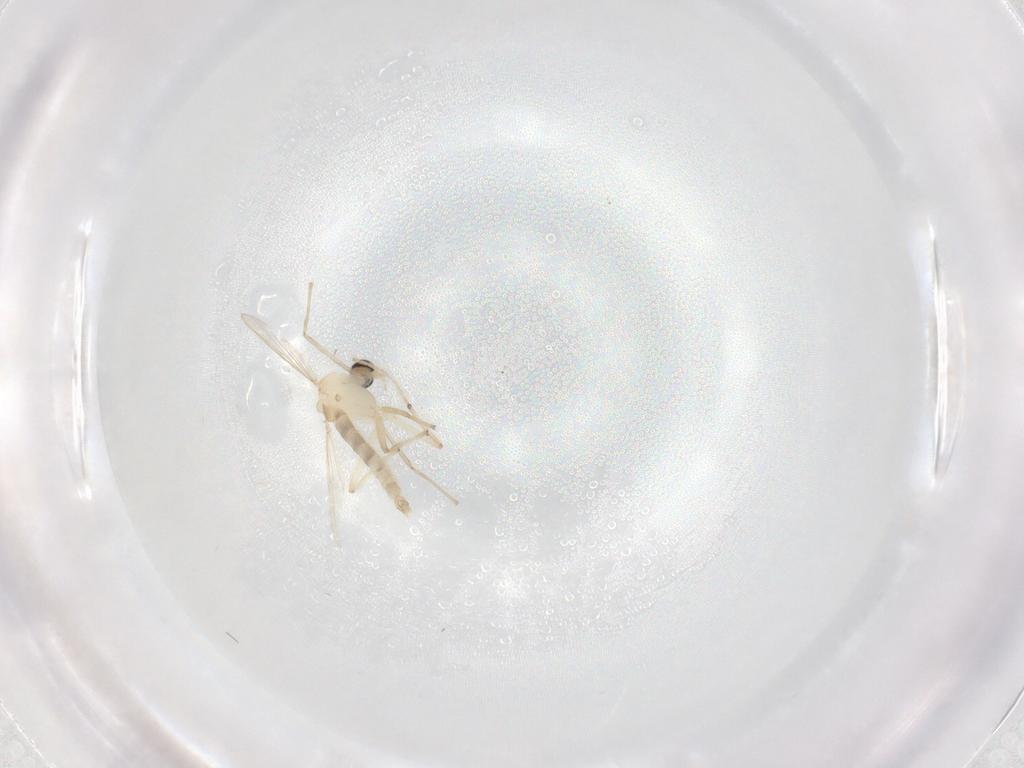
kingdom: Animalia
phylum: Arthropoda
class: Insecta
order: Diptera
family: Chironomidae
